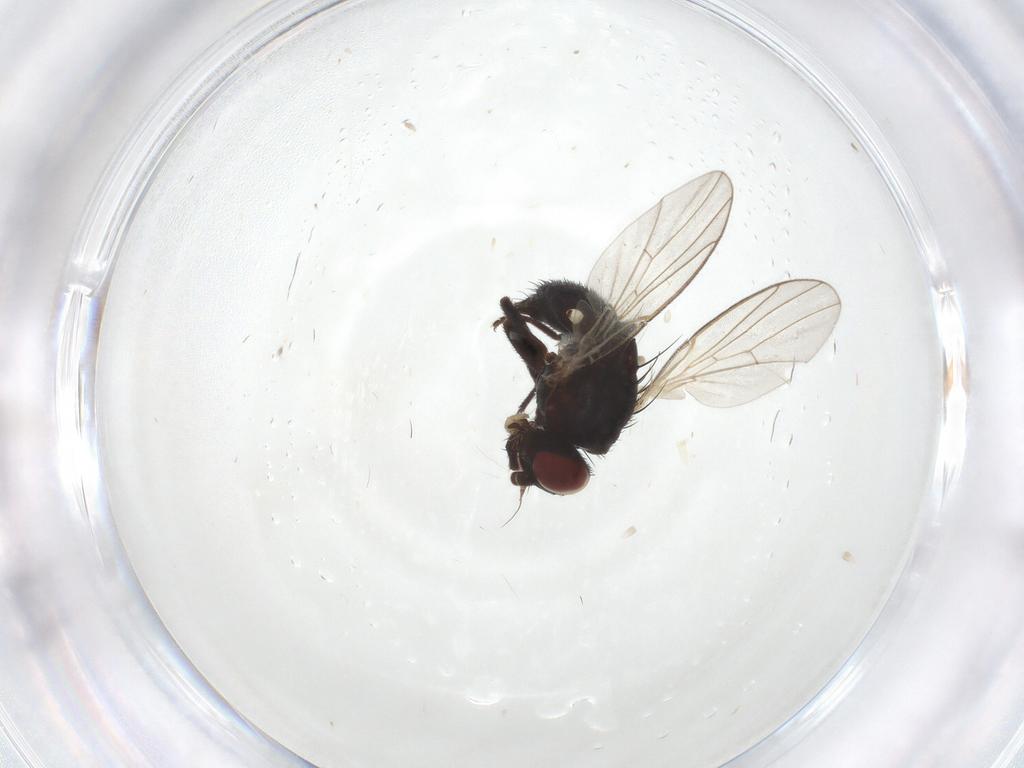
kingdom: Animalia
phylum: Arthropoda
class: Insecta
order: Diptera
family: Agromyzidae
